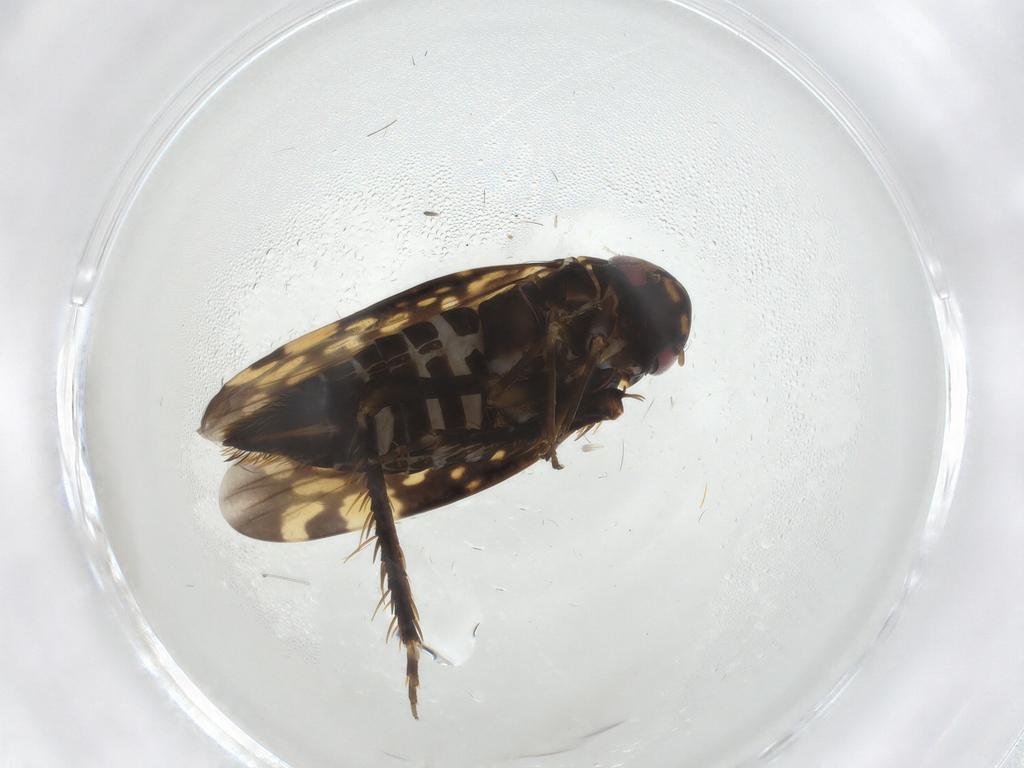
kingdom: Animalia
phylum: Arthropoda
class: Insecta
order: Hemiptera
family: Cicadellidae
